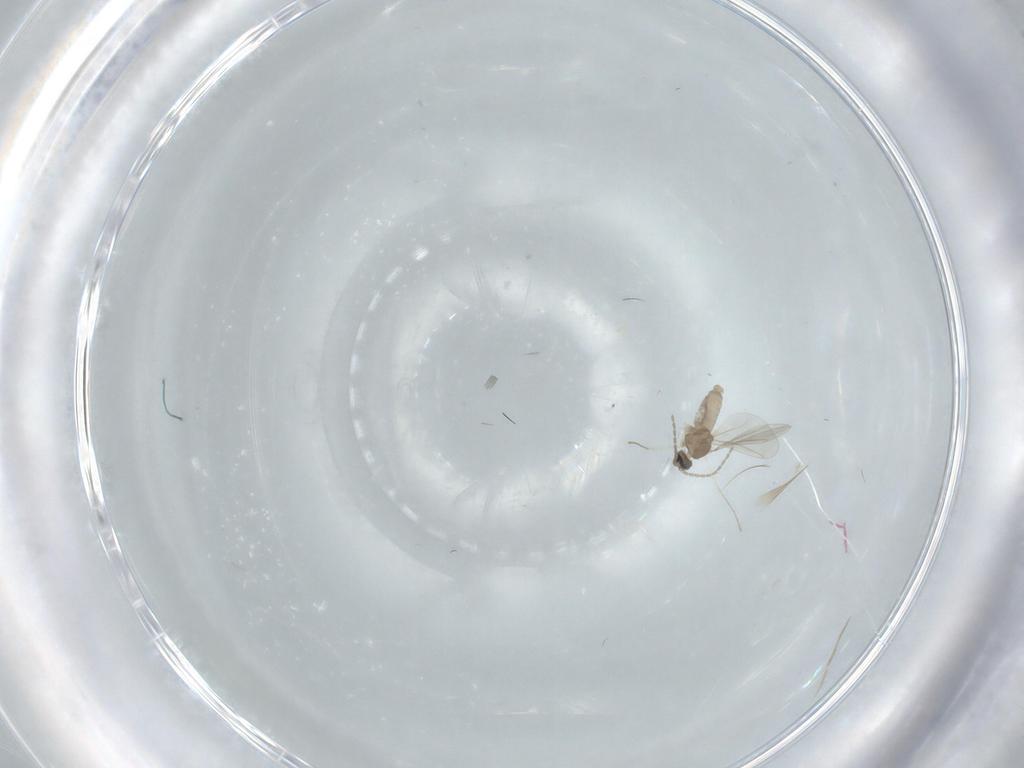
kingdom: Animalia
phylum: Arthropoda
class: Insecta
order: Diptera
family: Cecidomyiidae
